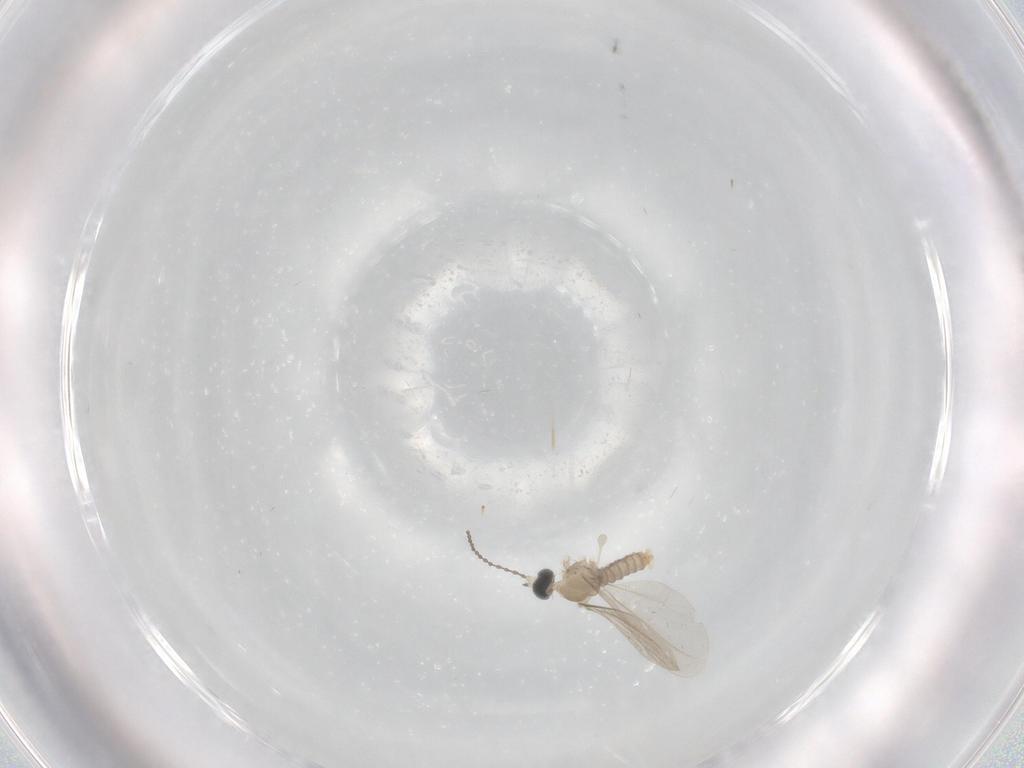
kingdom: Animalia
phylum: Arthropoda
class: Insecta
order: Diptera
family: Cecidomyiidae
